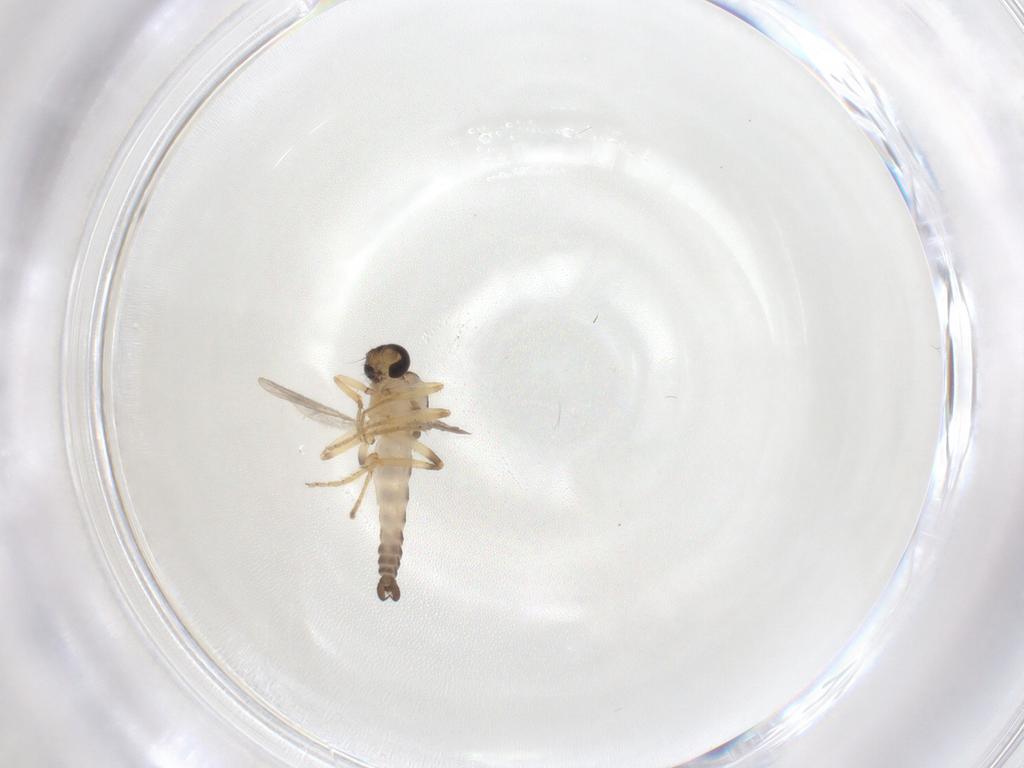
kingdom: Animalia
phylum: Arthropoda
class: Insecta
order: Diptera
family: Ceratopogonidae
